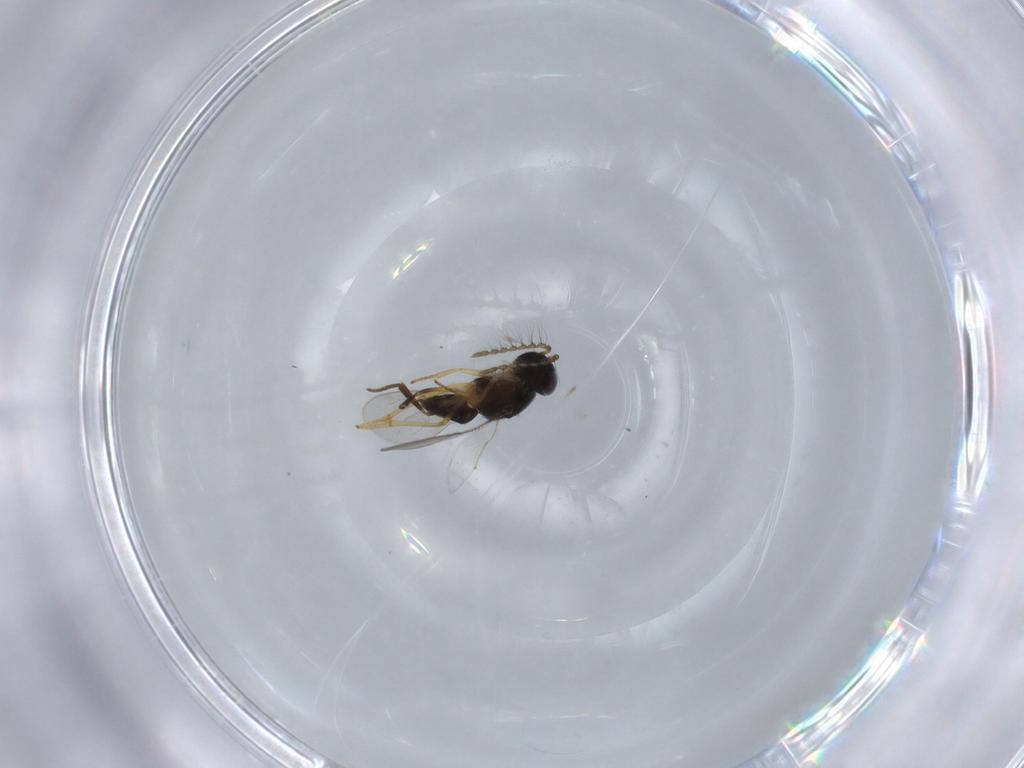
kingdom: Animalia
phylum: Arthropoda
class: Insecta
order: Hymenoptera
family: Encyrtidae
